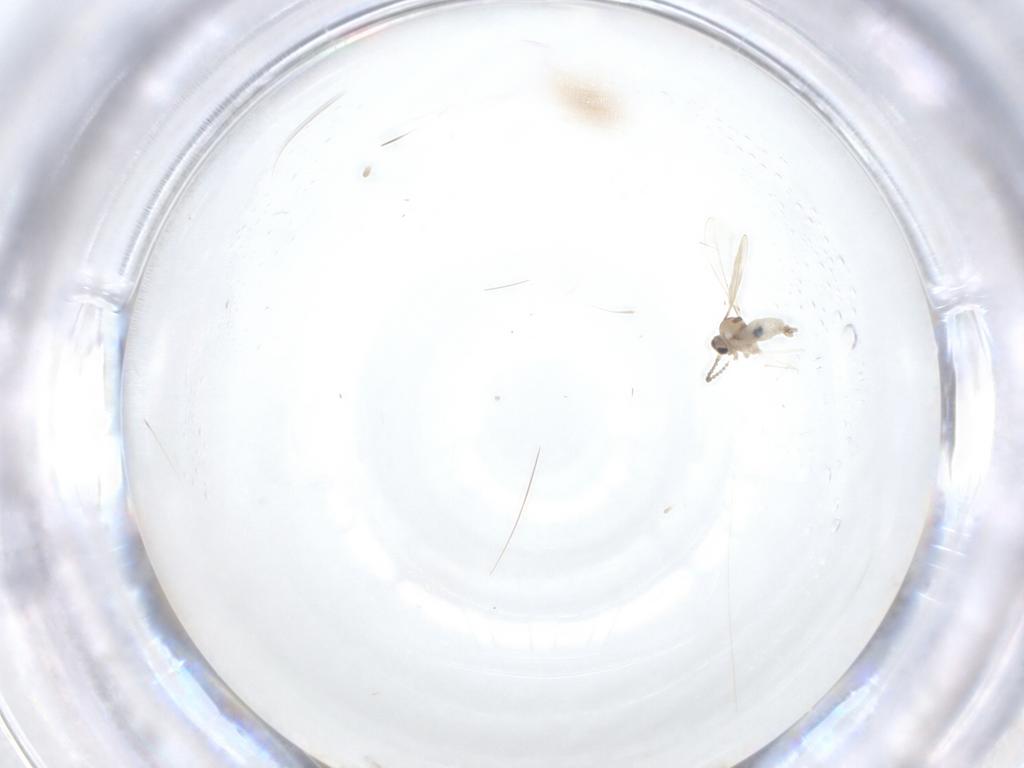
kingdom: Animalia
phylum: Arthropoda
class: Insecta
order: Diptera
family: Cecidomyiidae
